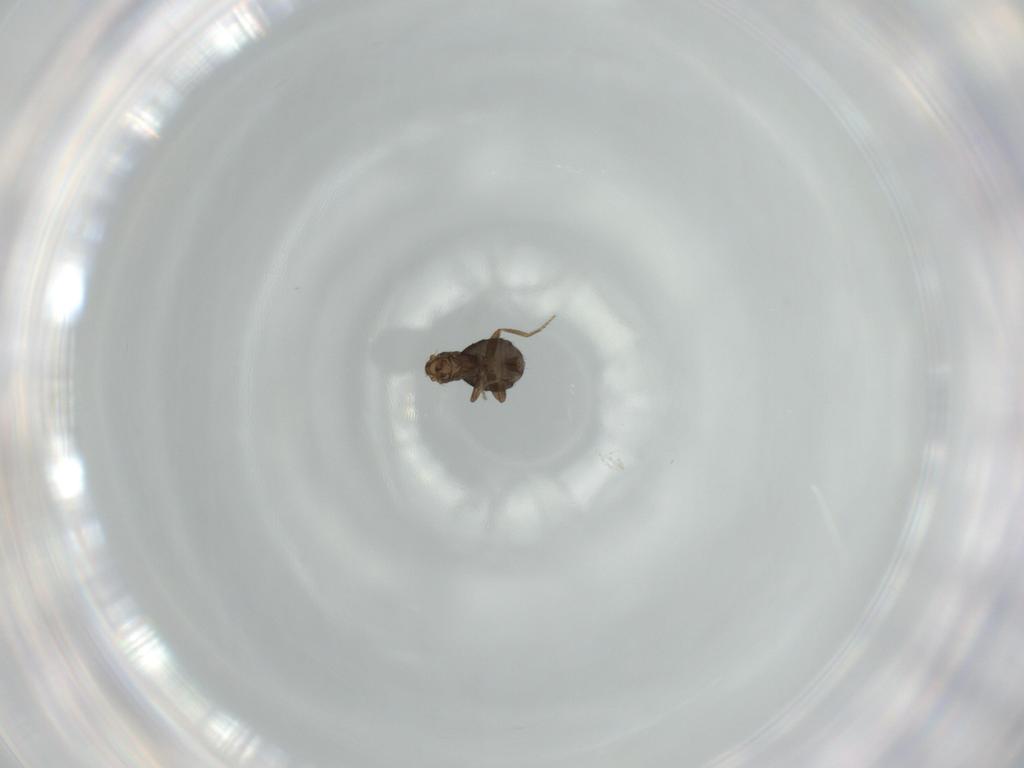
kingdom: Animalia
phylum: Arthropoda
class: Insecta
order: Diptera
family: Phoridae
